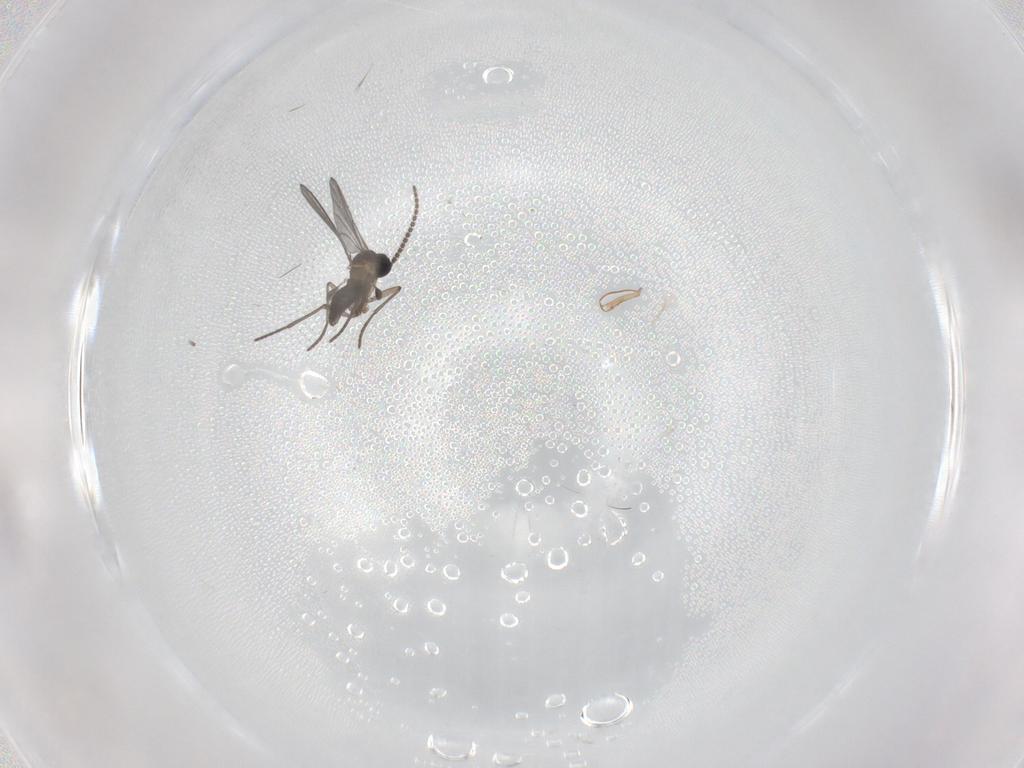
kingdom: Animalia
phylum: Arthropoda
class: Insecta
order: Diptera
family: Dolichopodidae
